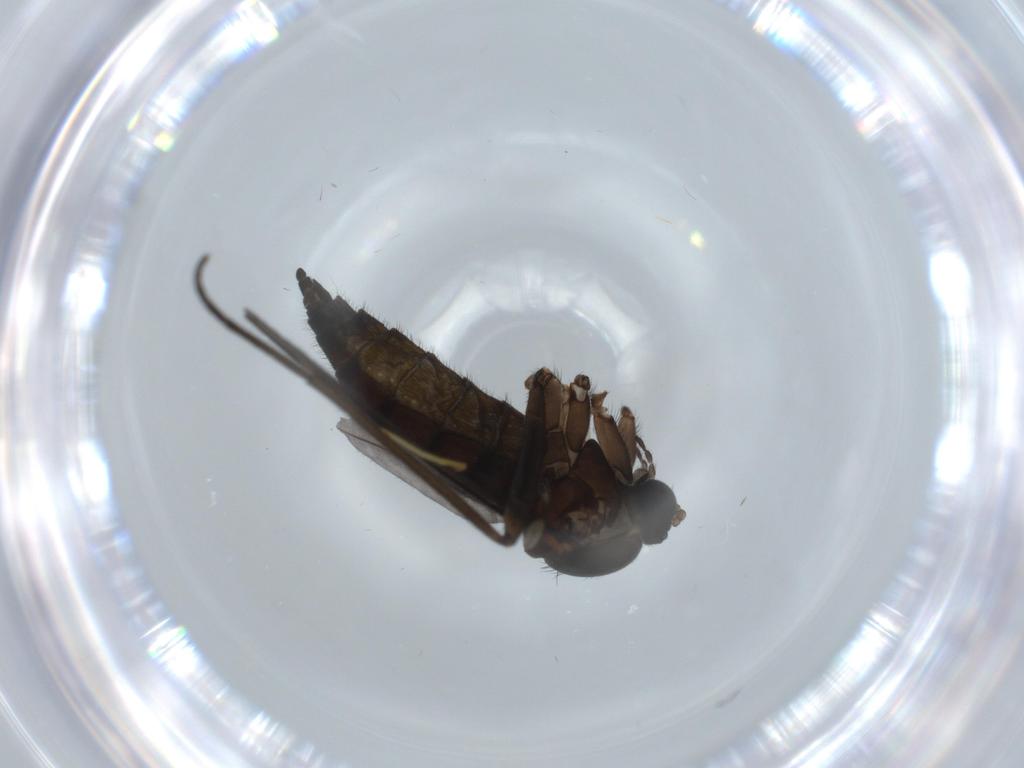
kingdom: Animalia
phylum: Arthropoda
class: Insecta
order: Diptera
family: Sciaridae
